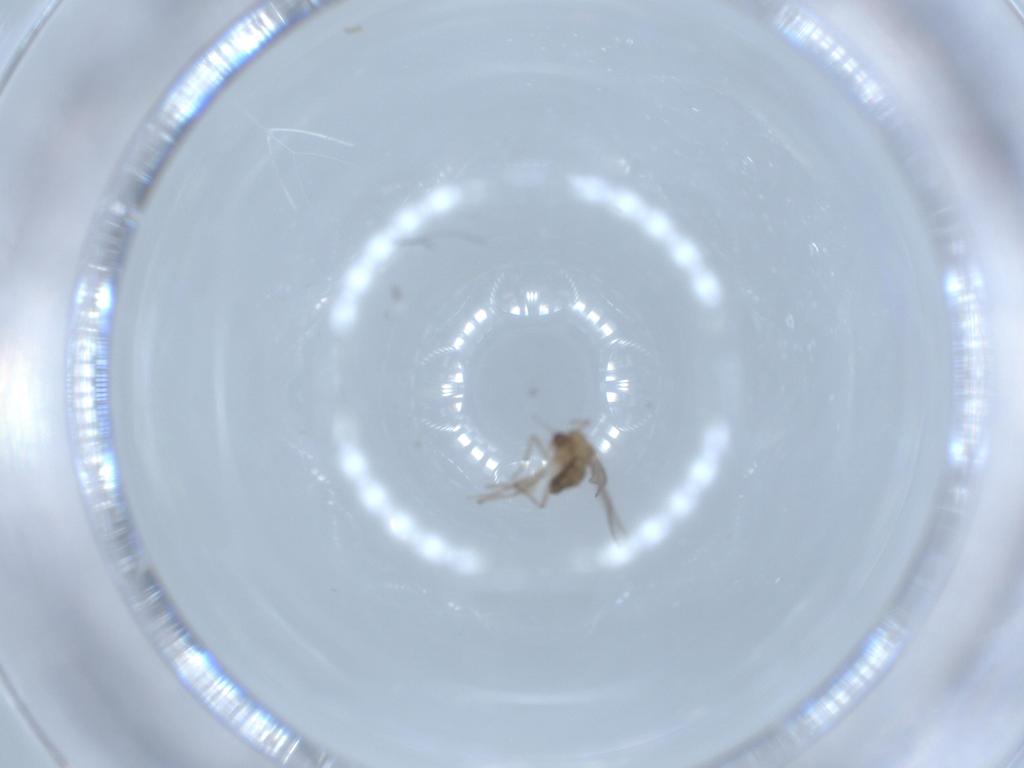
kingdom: Animalia
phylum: Arthropoda
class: Insecta
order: Diptera
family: Chironomidae
